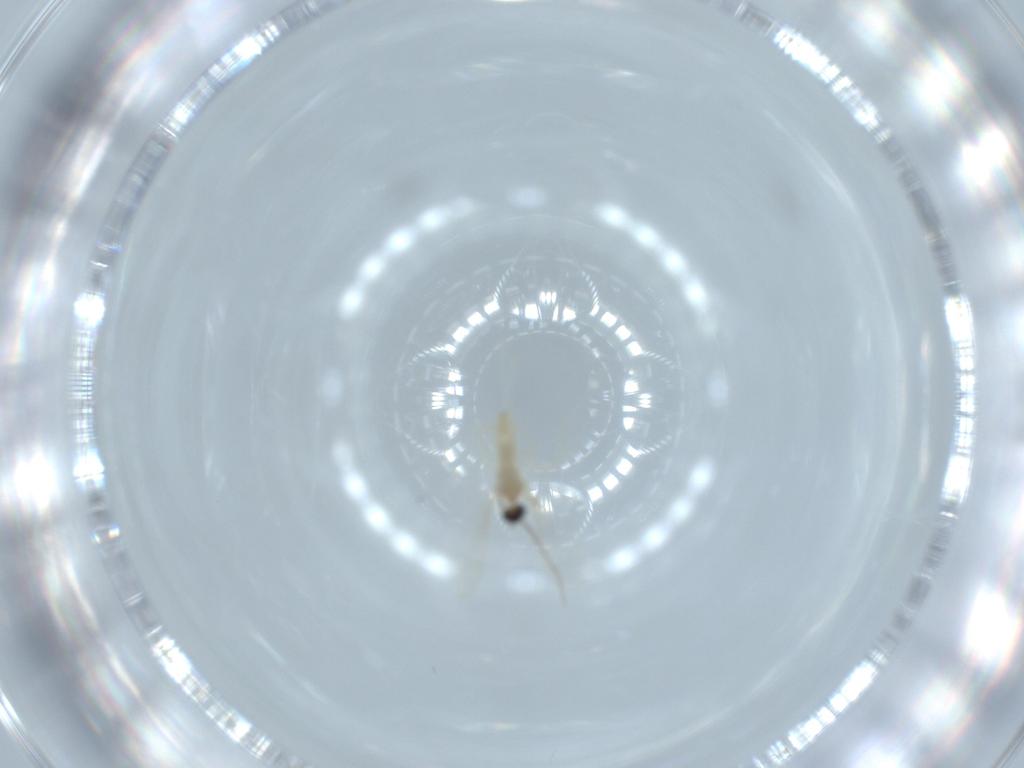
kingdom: Animalia
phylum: Arthropoda
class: Insecta
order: Diptera
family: Cecidomyiidae
